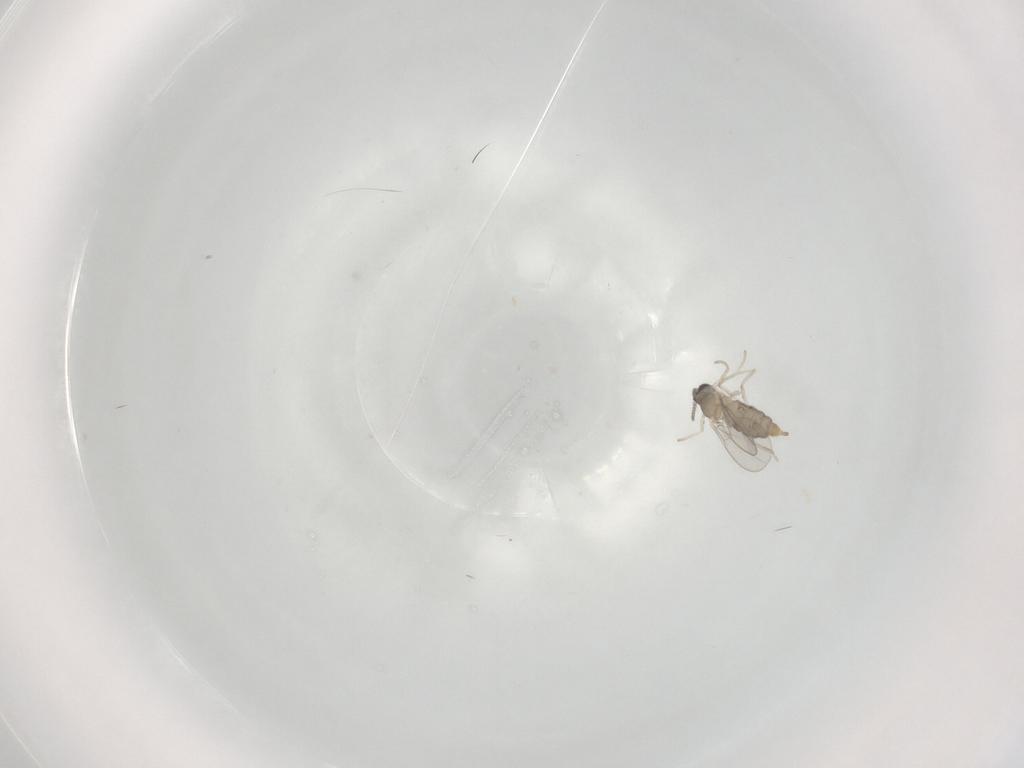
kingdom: Animalia
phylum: Arthropoda
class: Insecta
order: Diptera
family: Cecidomyiidae
